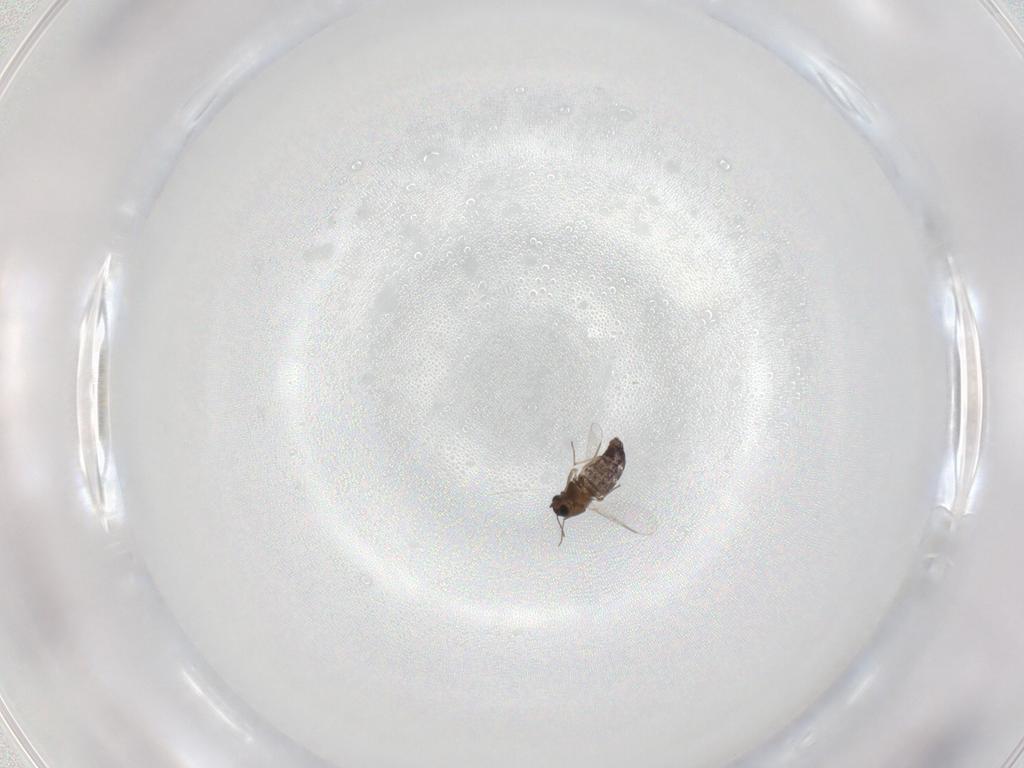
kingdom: Animalia
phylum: Arthropoda
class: Insecta
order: Diptera
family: Chironomidae
